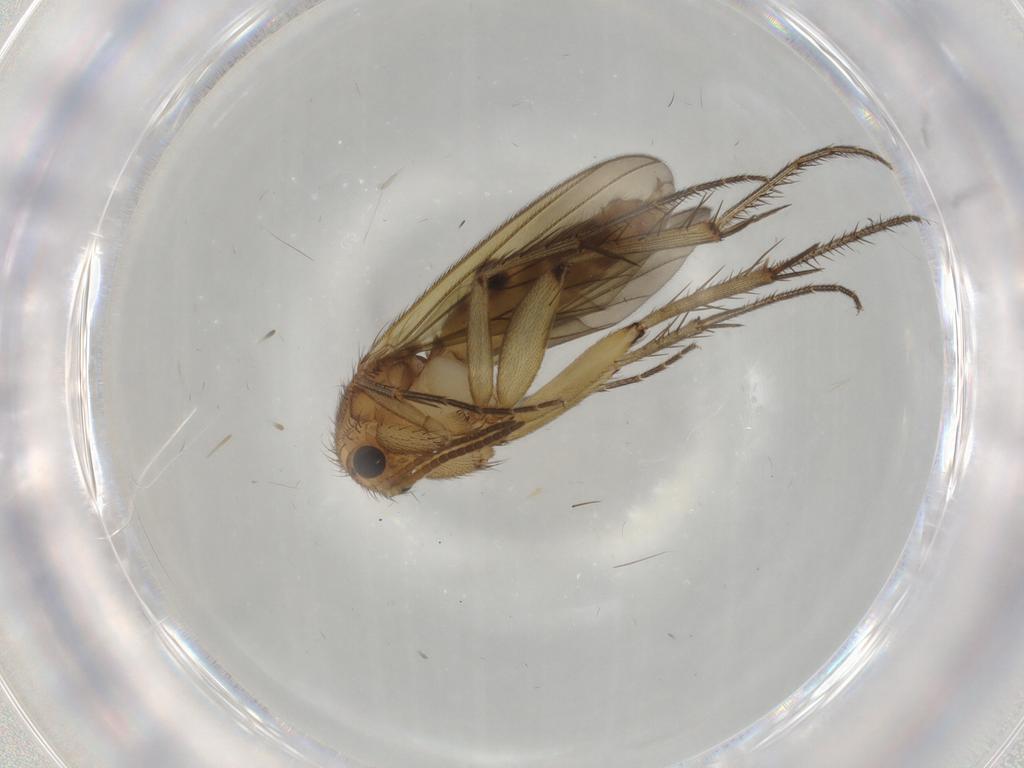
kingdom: Animalia
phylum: Arthropoda
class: Insecta
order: Diptera
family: Mycetophilidae
